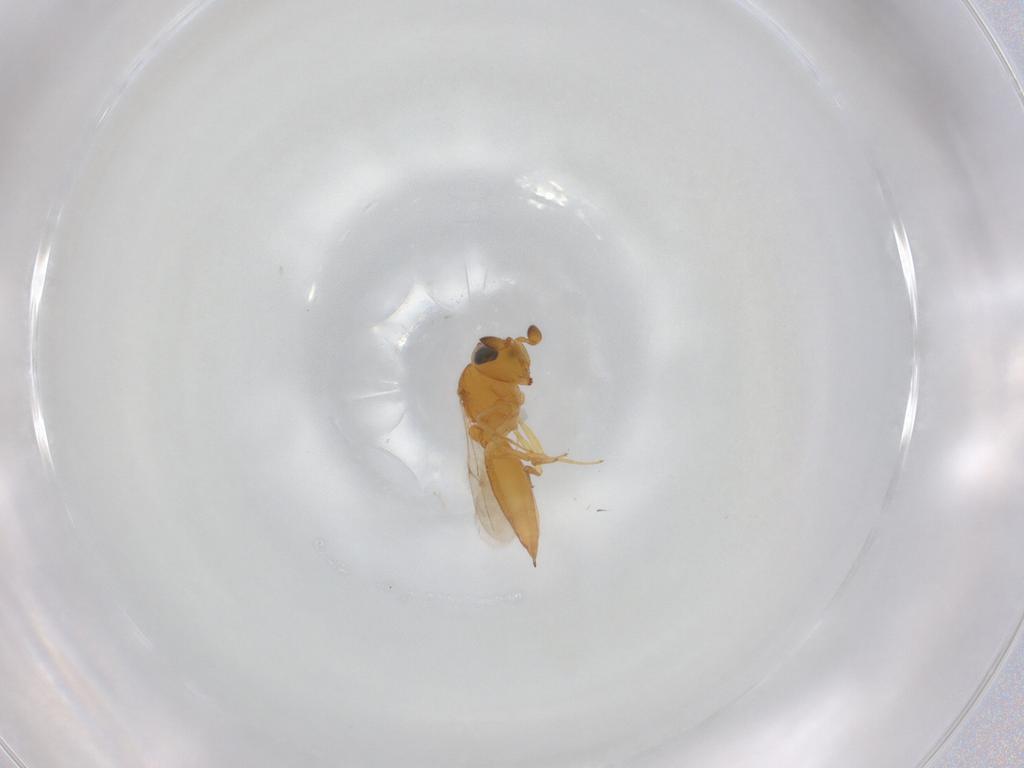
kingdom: Animalia
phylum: Arthropoda
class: Insecta
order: Hymenoptera
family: Scelionidae
